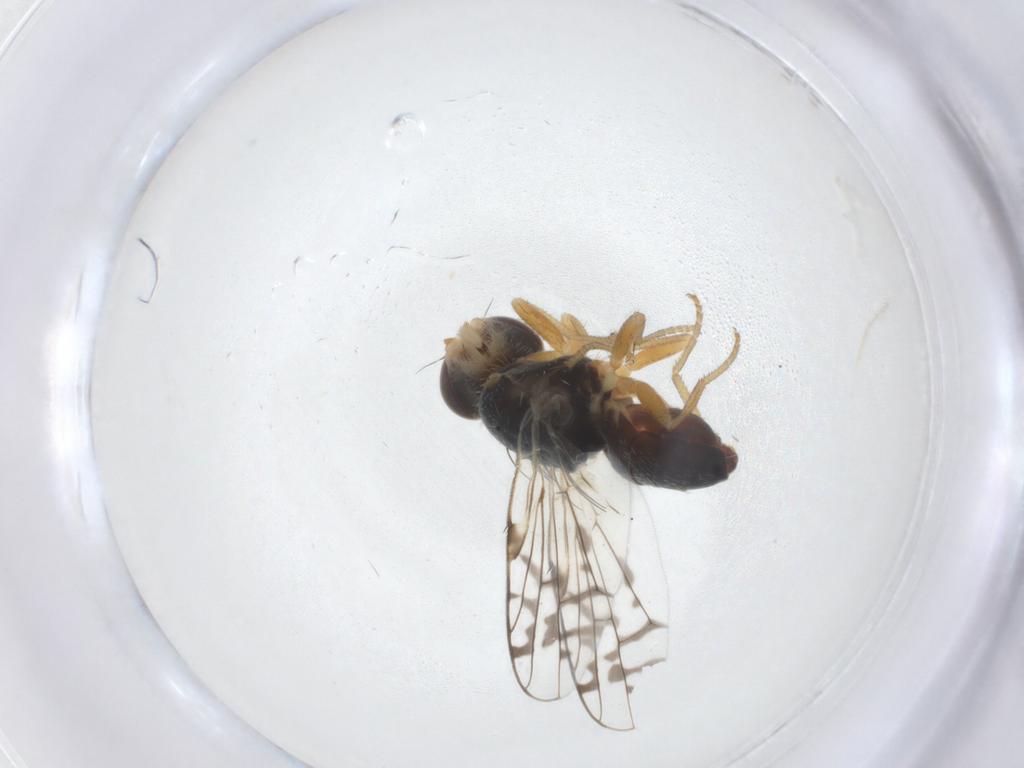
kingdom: Animalia
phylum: Arthropoda
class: Insecta
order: Diptera
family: Tephritidae
